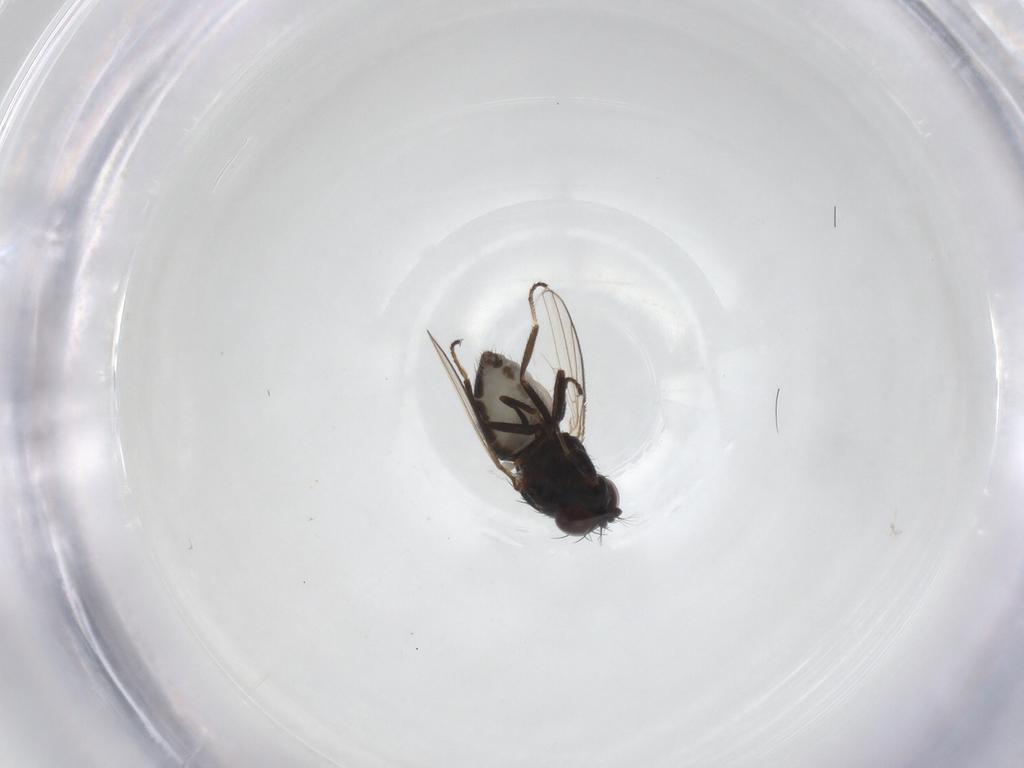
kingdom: Animalia
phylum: Arthropoda
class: Insecta
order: Diptera
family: Ephydridae
